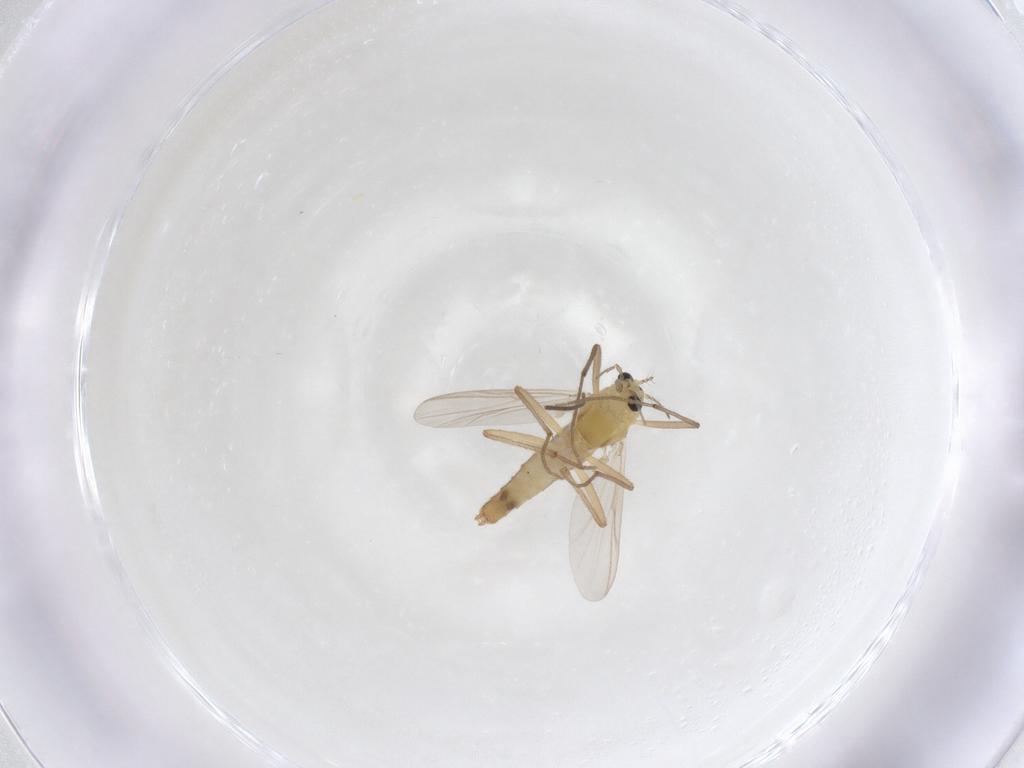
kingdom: Animalia
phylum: Arthropoda
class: Insecta
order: Diptera
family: Chironomidae
